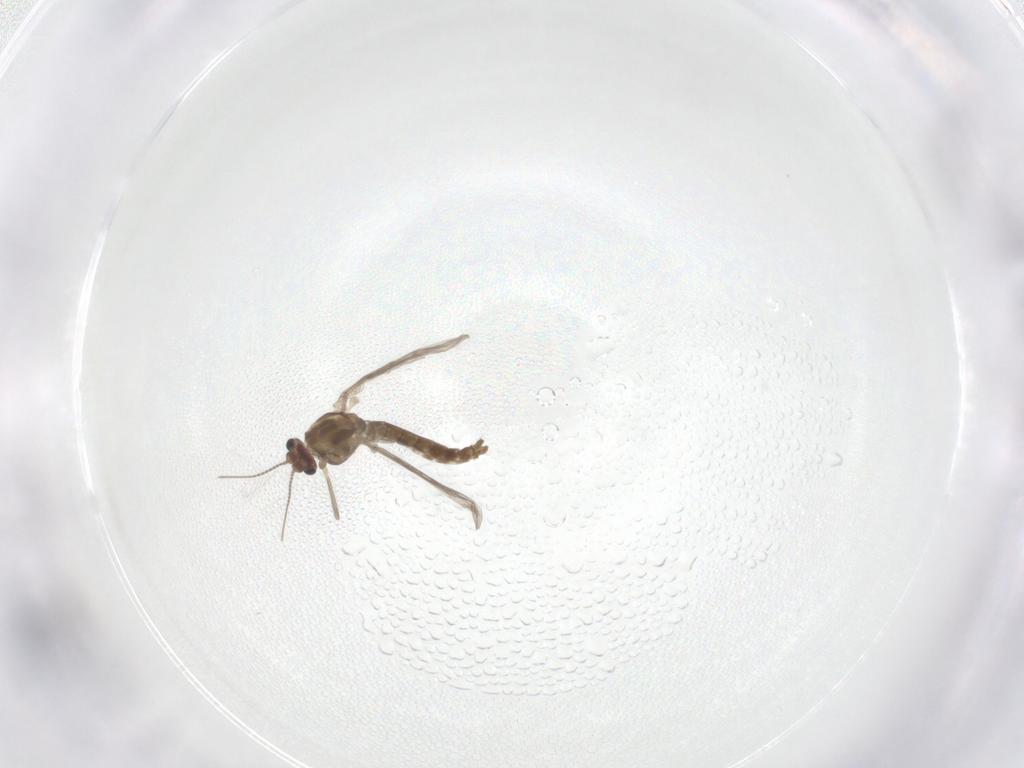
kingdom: Animalia
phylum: Arthropoda
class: Insecta
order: Diptera
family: Chironomidae
